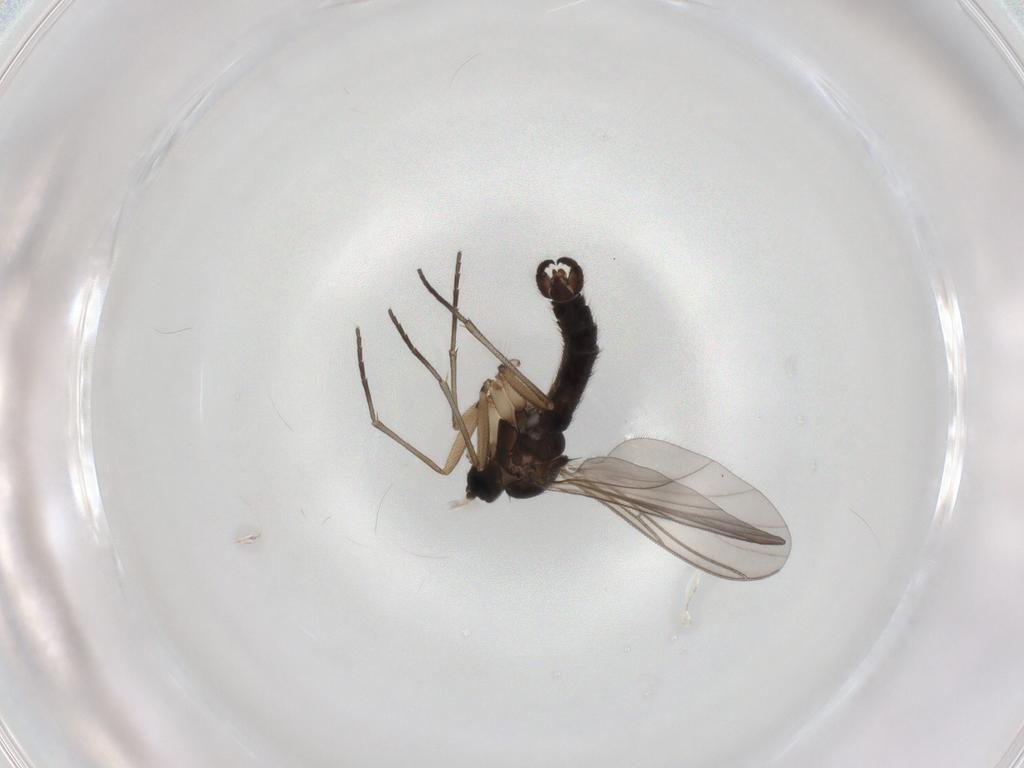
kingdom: Animalia
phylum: Arthropoda
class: Insecta
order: Diptera
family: Sciaridae
